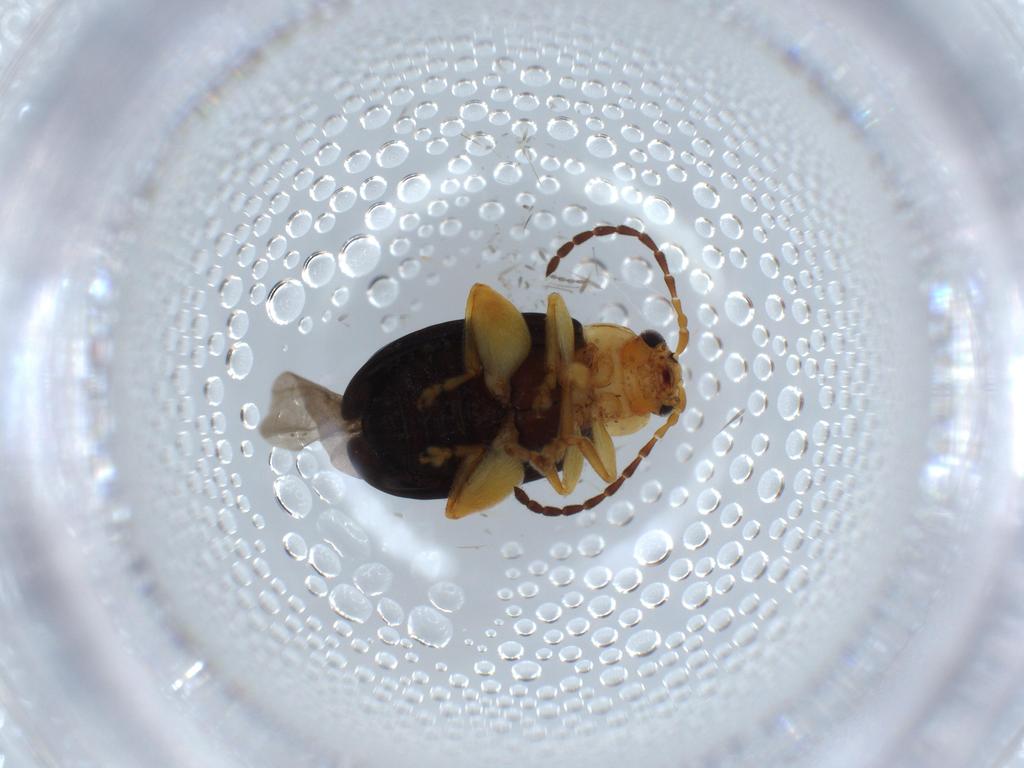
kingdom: Animalia
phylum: Arthropoda
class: Insecta
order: Coleoptera
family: Chrysomelidae
